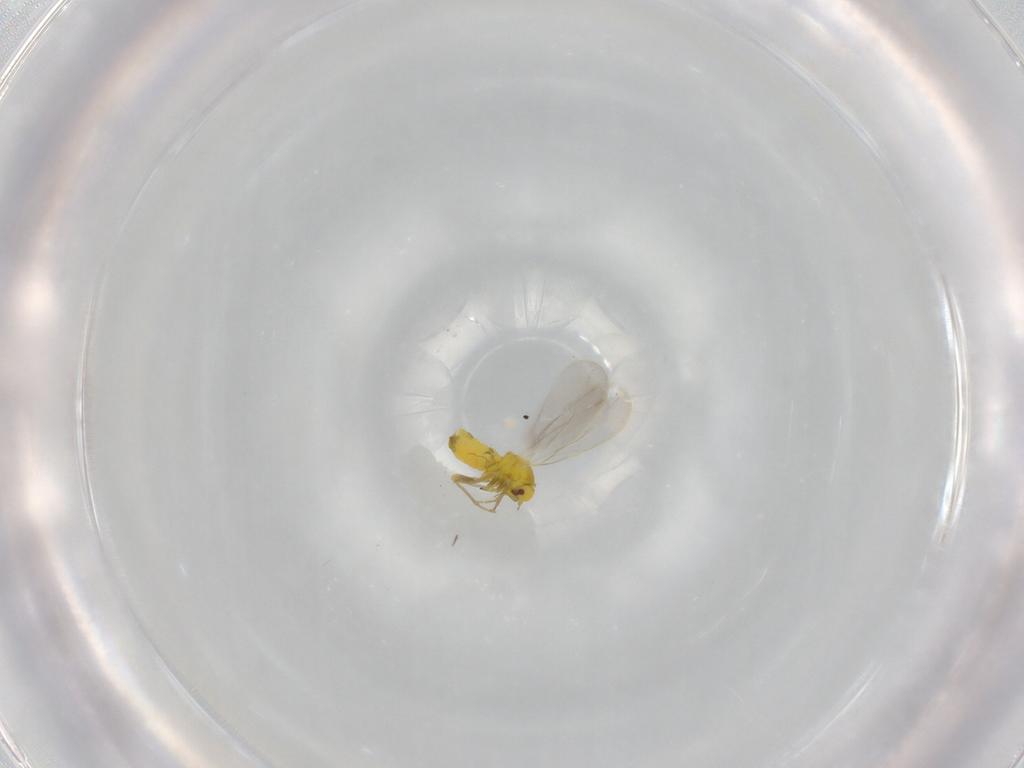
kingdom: Animalia
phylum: Arthropoda
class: Insecta
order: Hemiptera
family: Aleyrodidae
